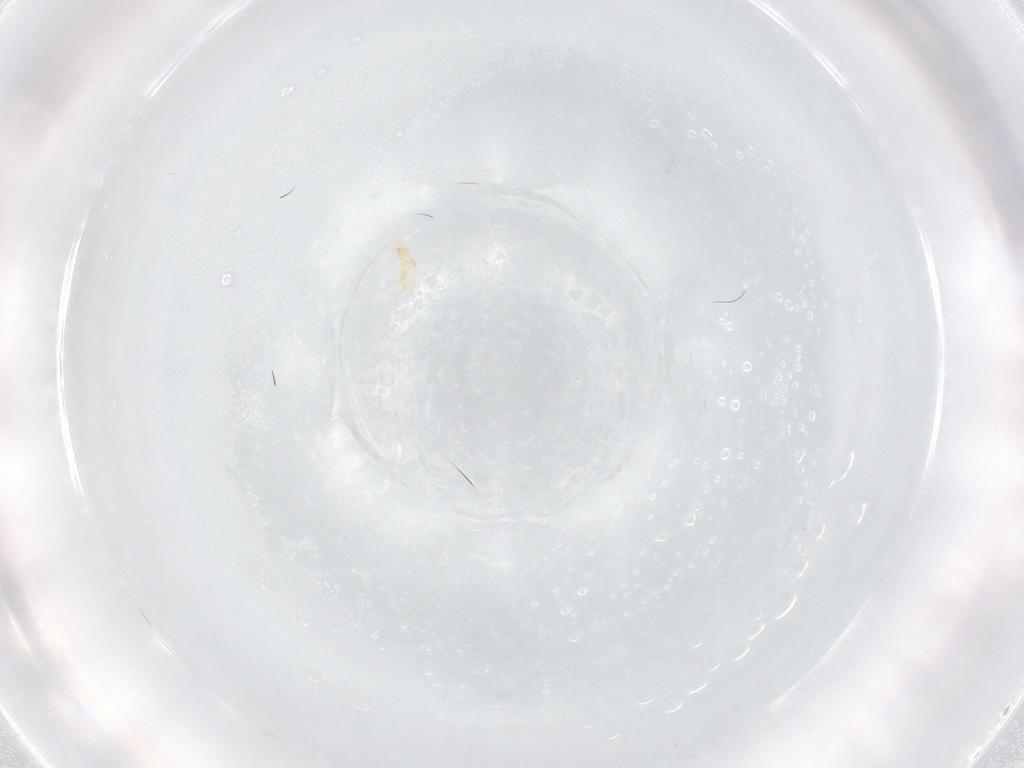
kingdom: Animalia
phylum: Arthropoda
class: Arachnida
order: Trombidiformes
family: Erythraeidae
